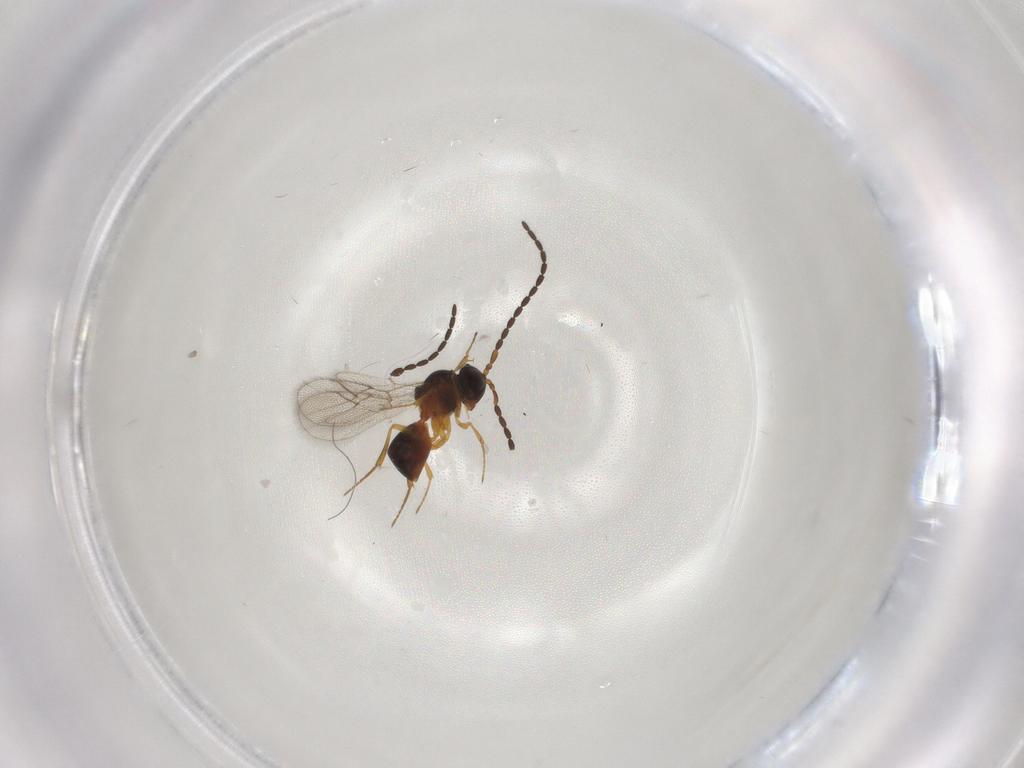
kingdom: Animalia
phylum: Arthropoda
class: Insecta
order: Hymenoptera
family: Figitidae
